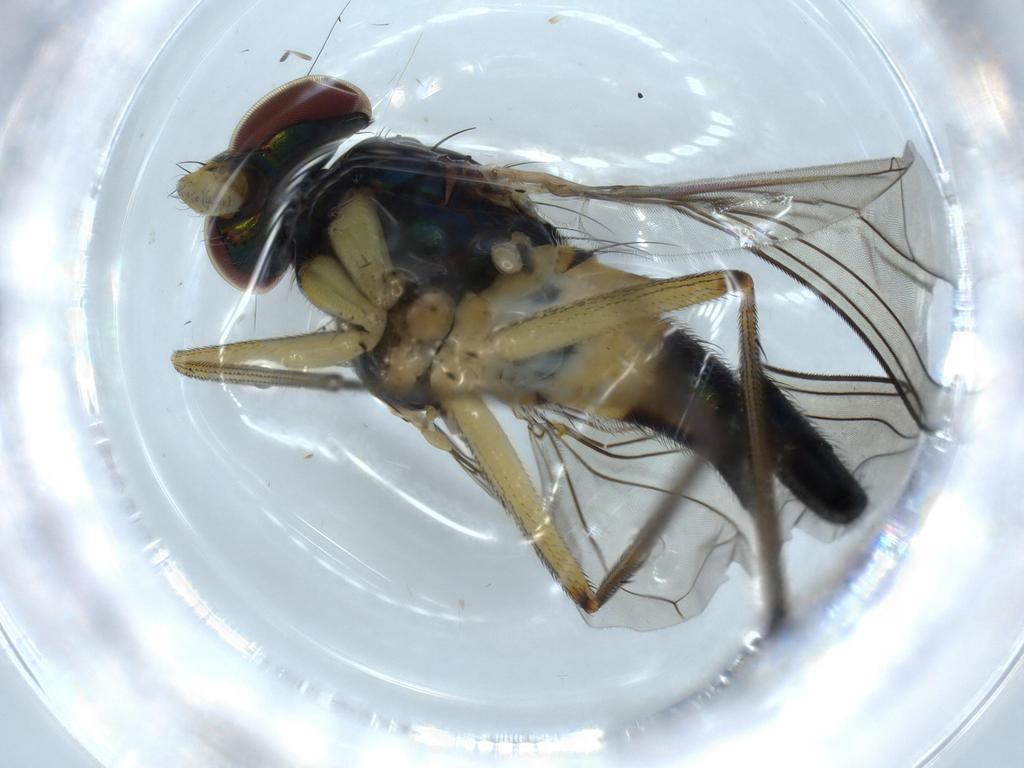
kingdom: Animalia
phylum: Arthropoda
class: Insecta
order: Diptera
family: Dolichopodidae
